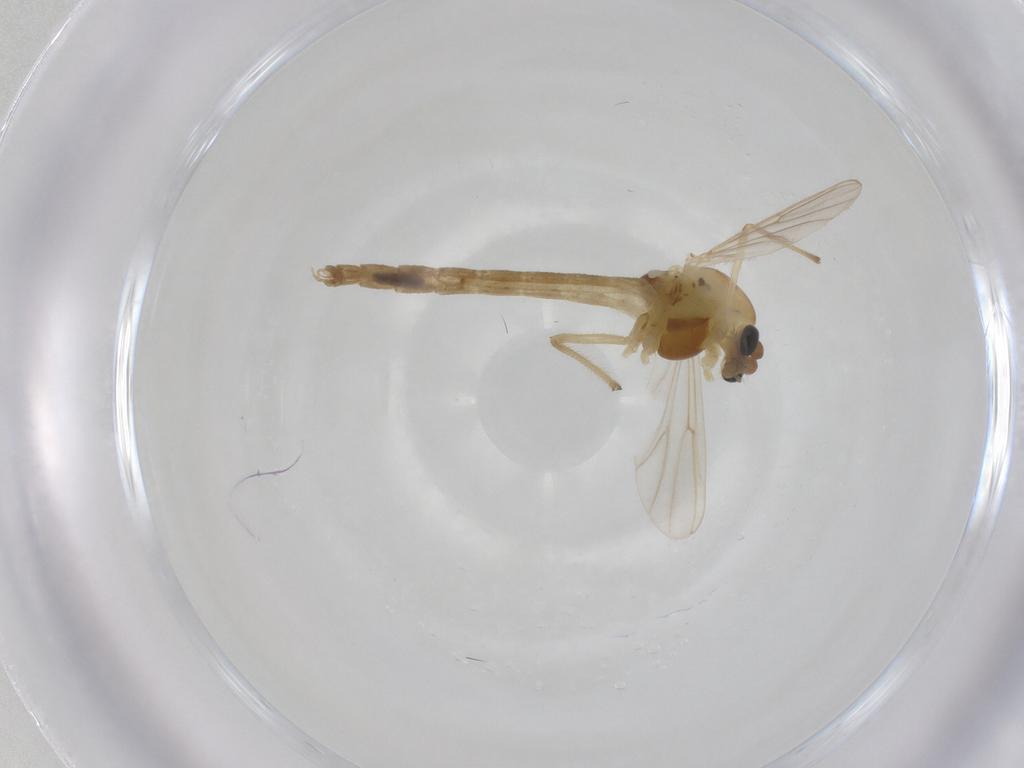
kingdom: Animalia
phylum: Arthropoda
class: Insecta
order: Diptera
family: Chironomidae
